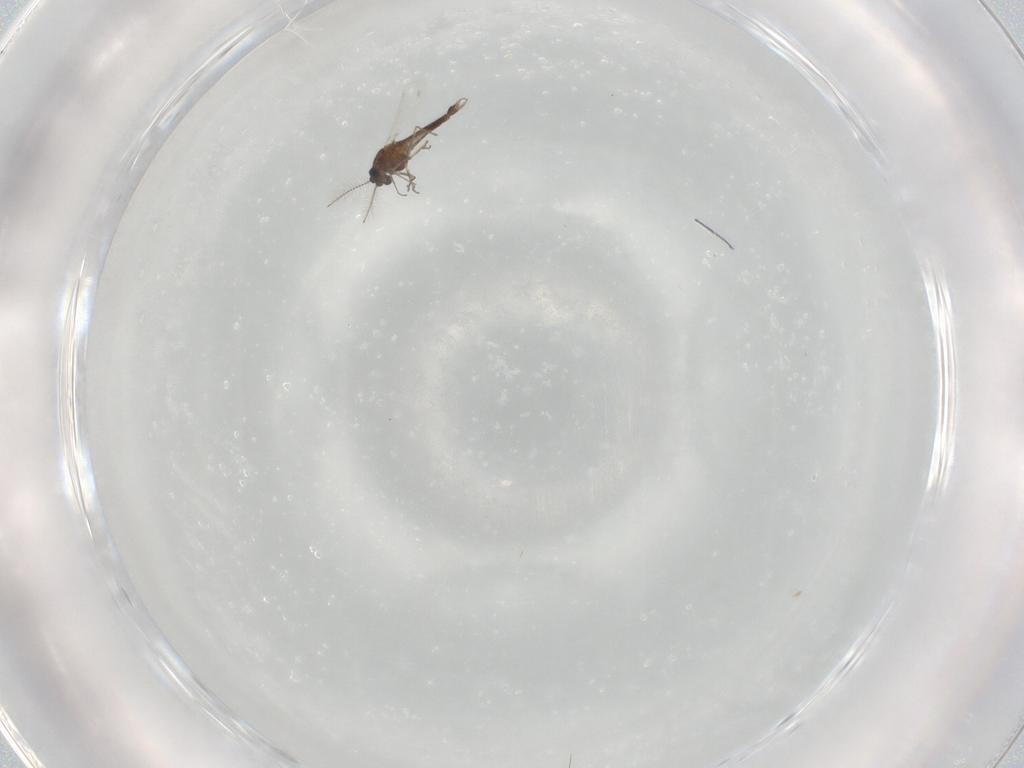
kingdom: Animalia
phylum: Arthropoda
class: Insecta
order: Diptera
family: Chironomidae
